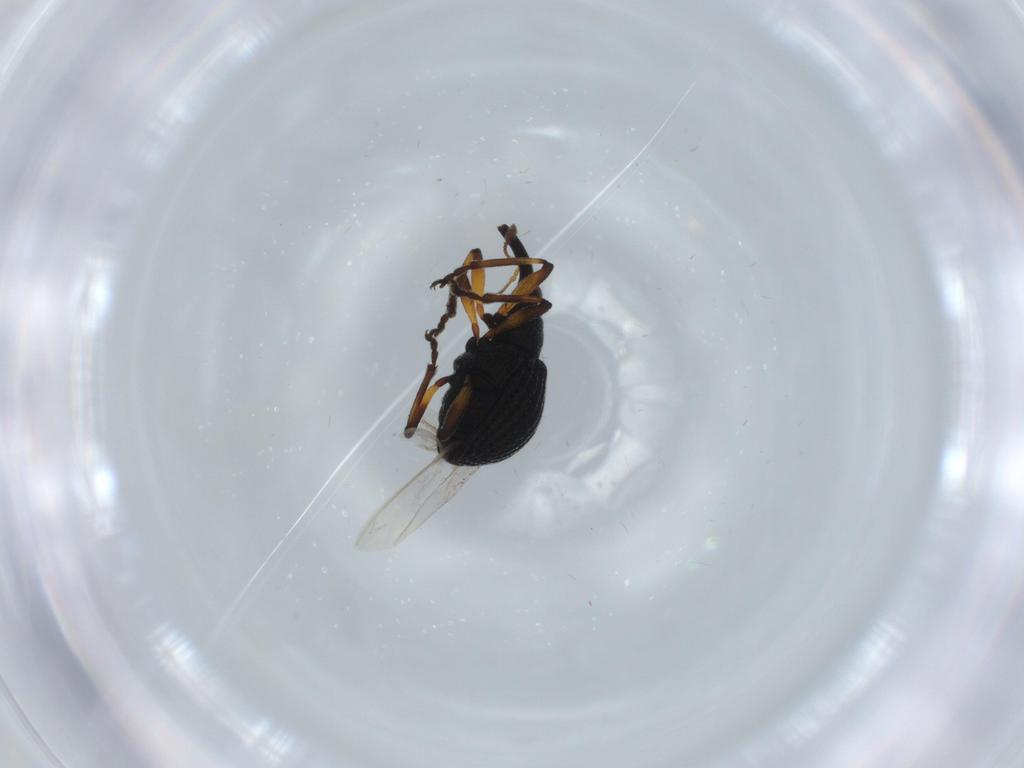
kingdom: Animalia
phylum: Arthropoda
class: Insecta
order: Coleoptera
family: Brentidae
